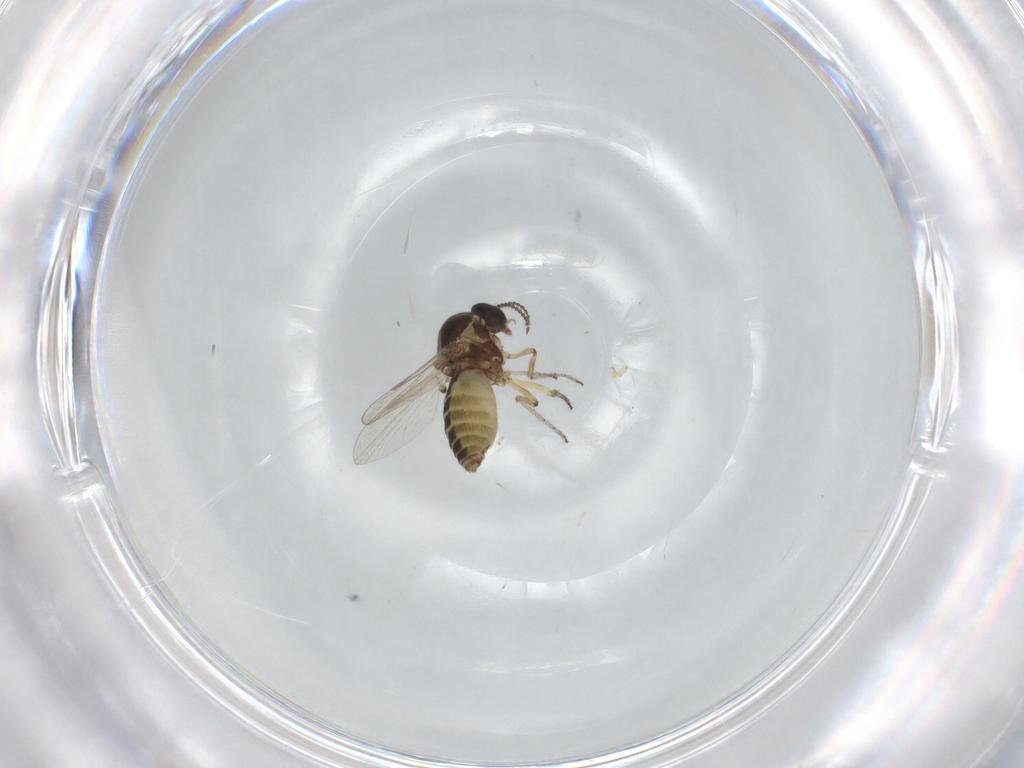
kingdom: Animalia
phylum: Arthropoda
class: Insecta
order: Diptera
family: Ceratopogonidae
